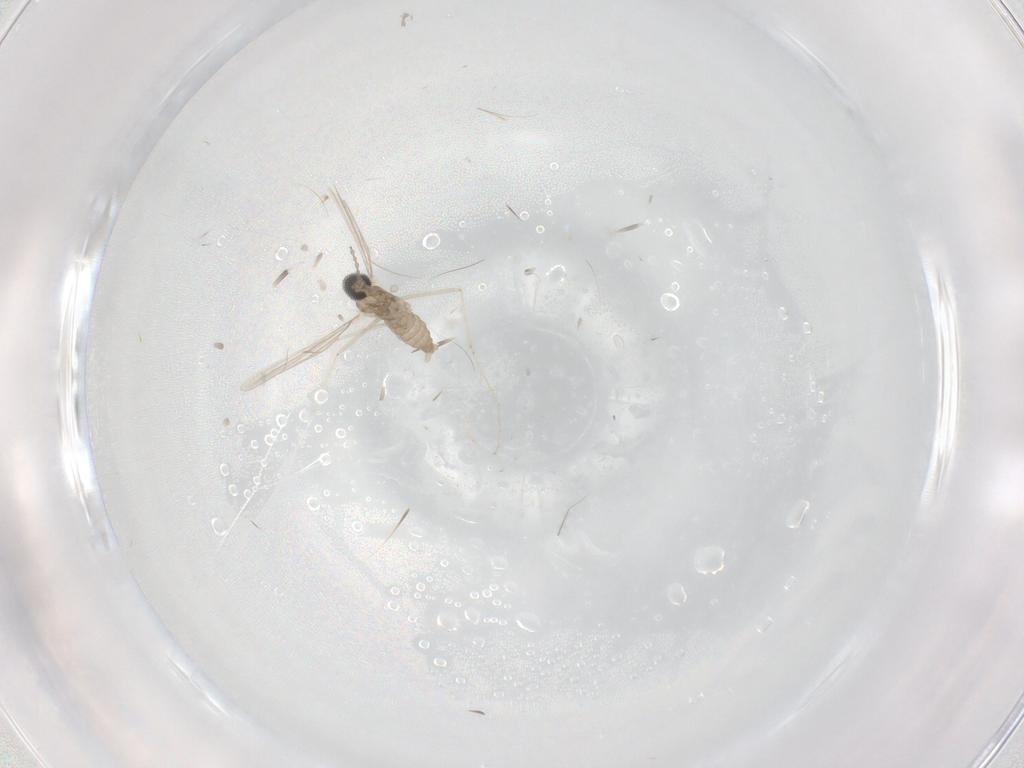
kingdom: Animalia
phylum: Arthropoda
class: Insecta
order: Diptera
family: Cecidomyiidae
